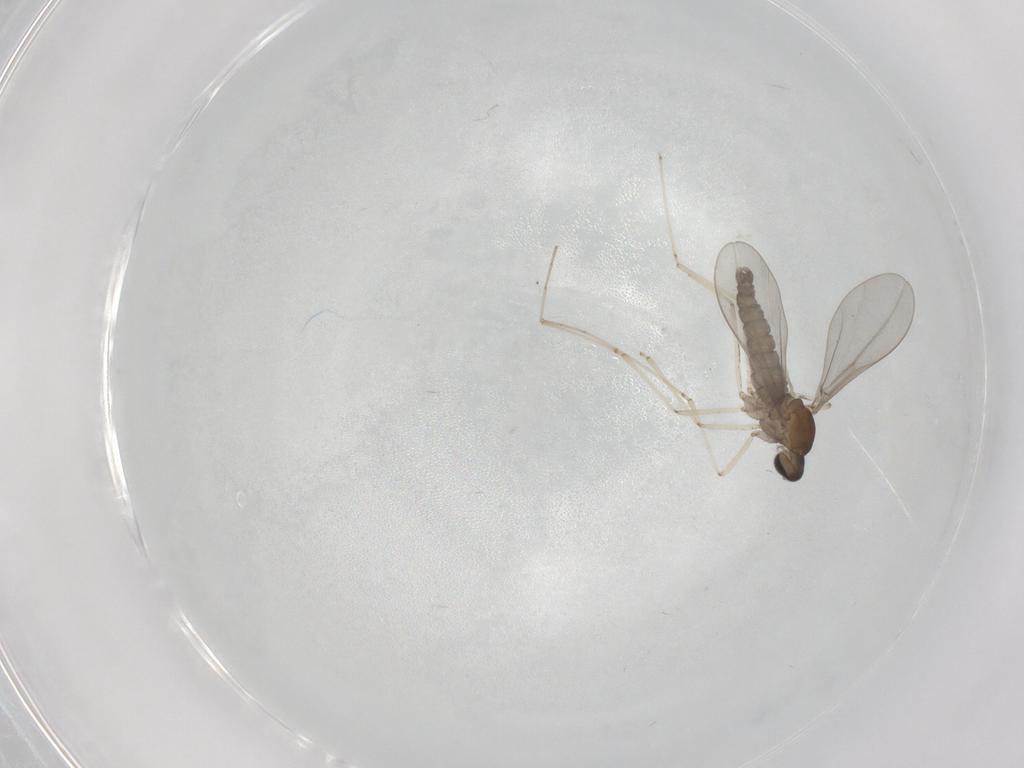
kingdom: Animalia
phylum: Arthropoda
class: Insecta
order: Diptera
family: Cecidomyiidae
